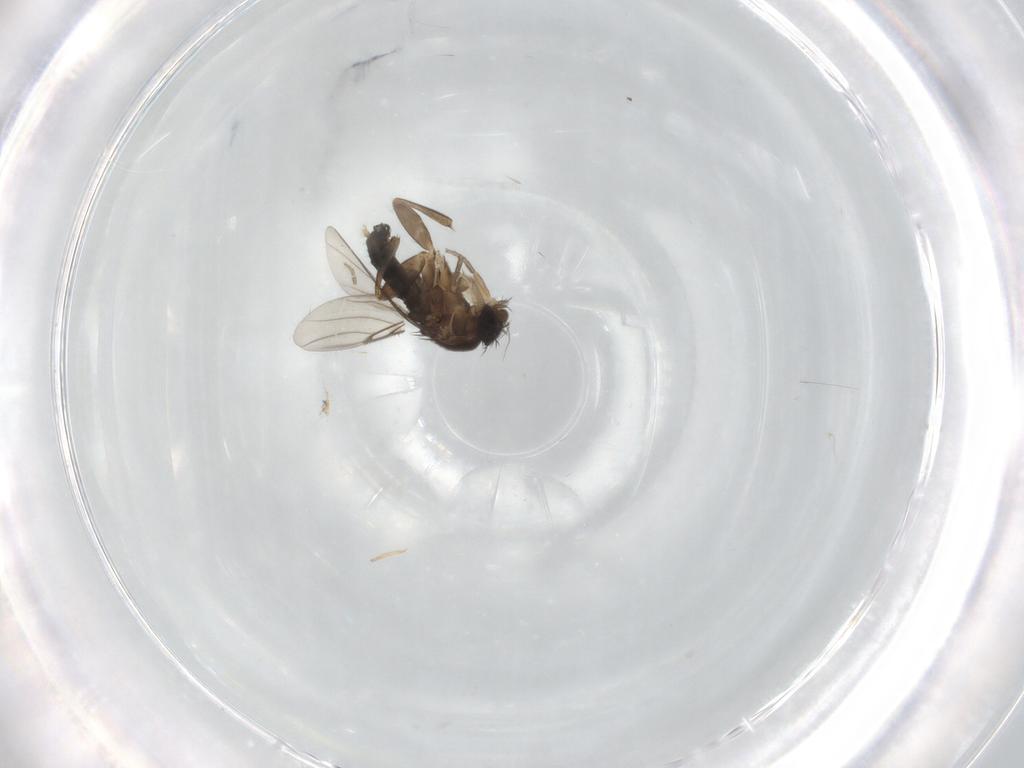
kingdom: Animalia
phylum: Arthropoda
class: Insecta
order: Diptera
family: Phoridae
